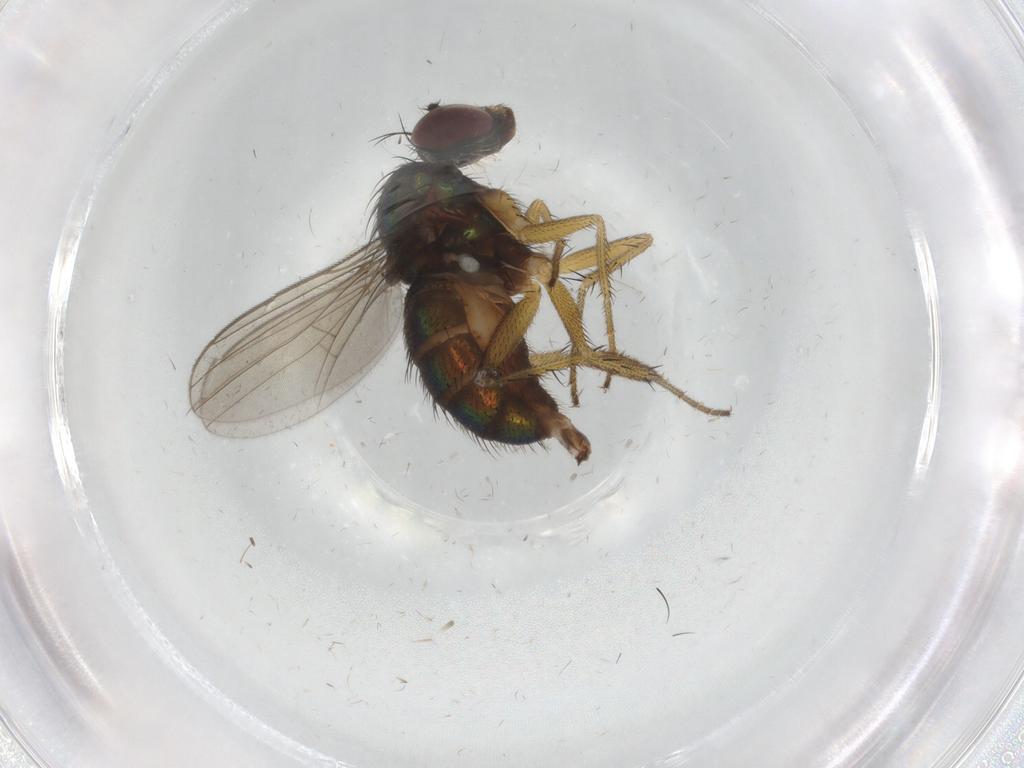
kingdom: Animalia
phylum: Arthropoda
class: Insecta
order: Diptera
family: Dolichopodidae
